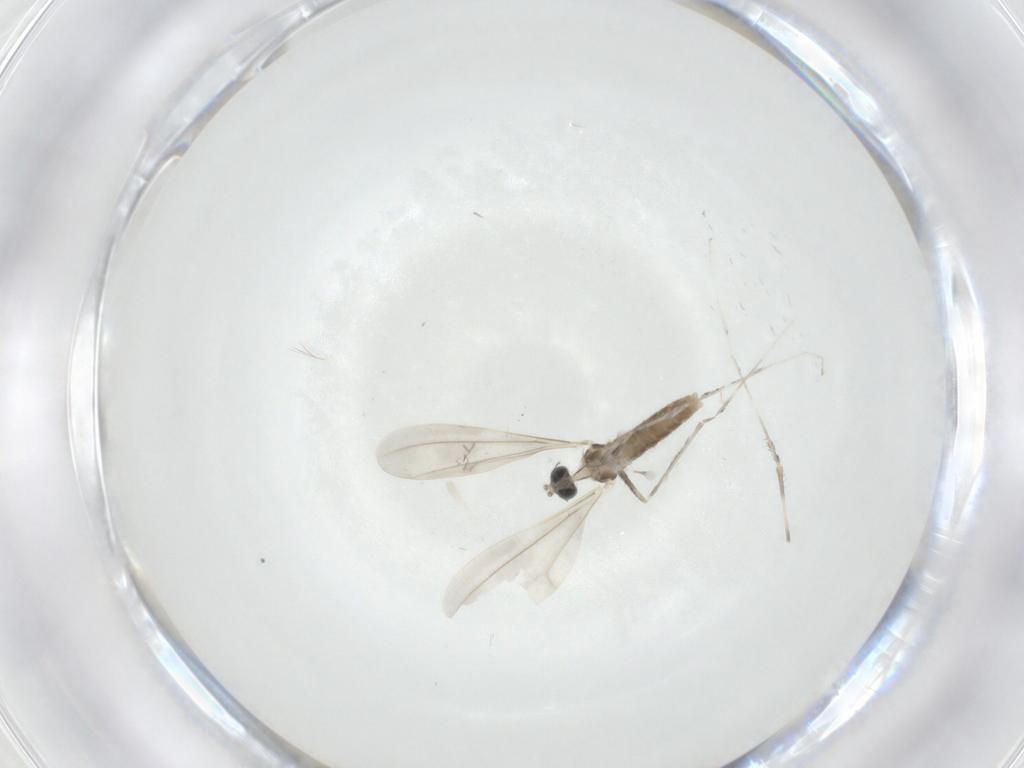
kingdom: Animalia
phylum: Arthropoda
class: Insecta
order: Diptera
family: Cecidomyiidae
